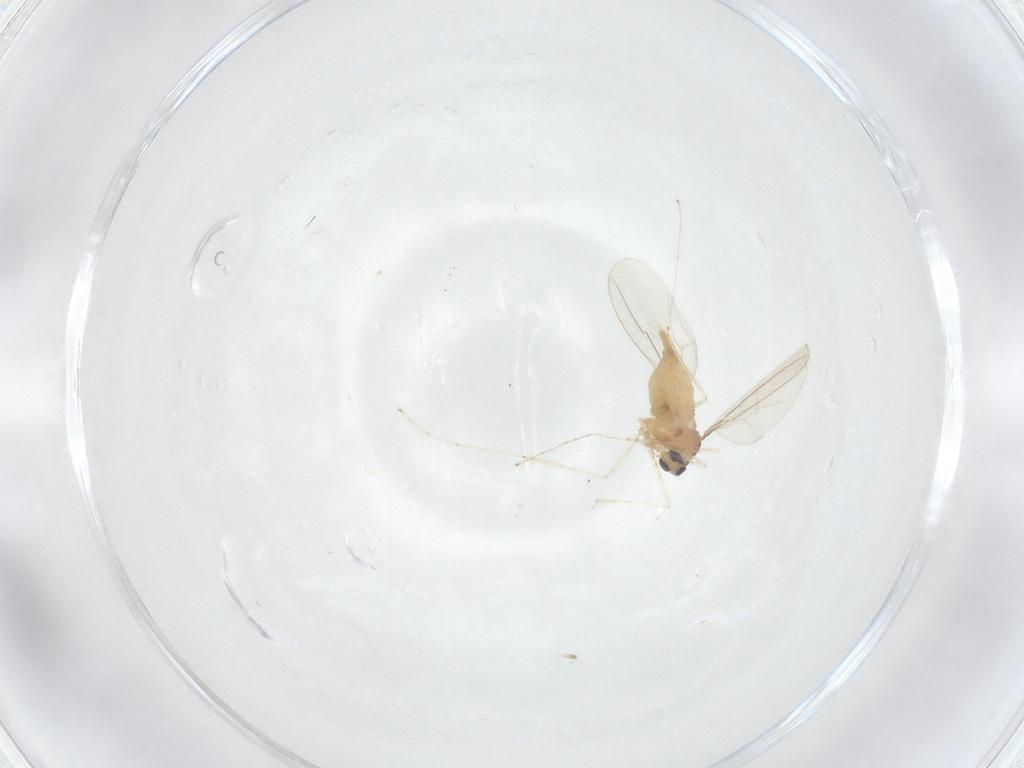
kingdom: Animalia
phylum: Arthropoda
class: Insecta
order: Diptera
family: Cecidomyiidae
